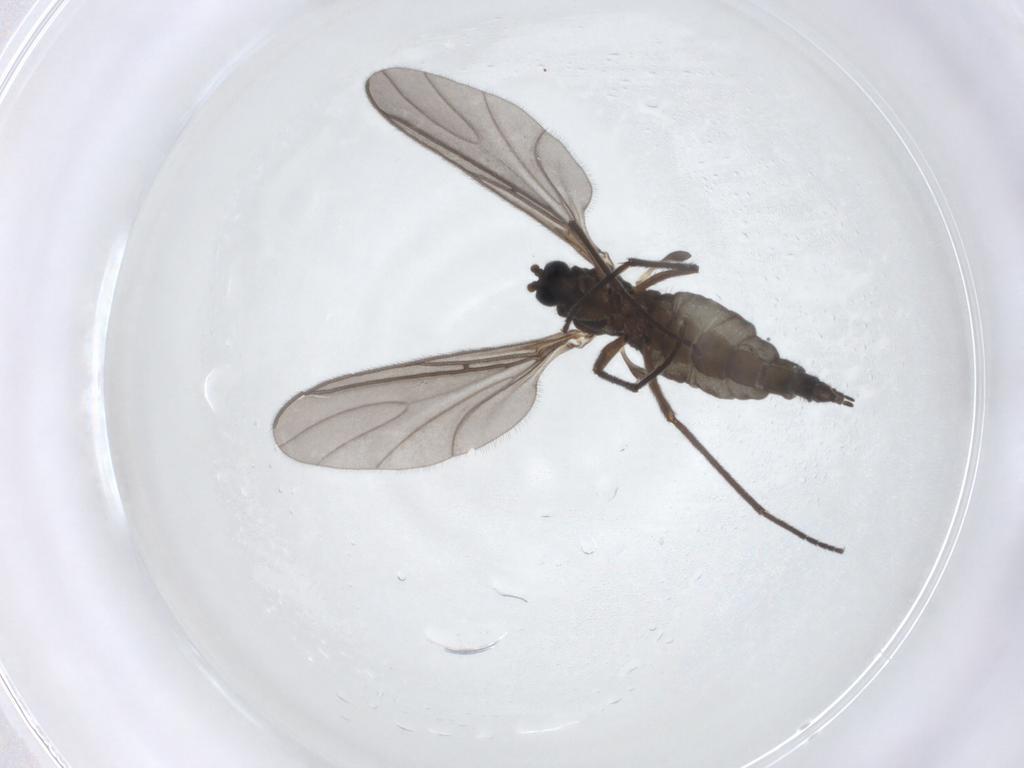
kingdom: Animalia
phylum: Arthropoda
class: Insecta
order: Diptera
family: Sciaridae
